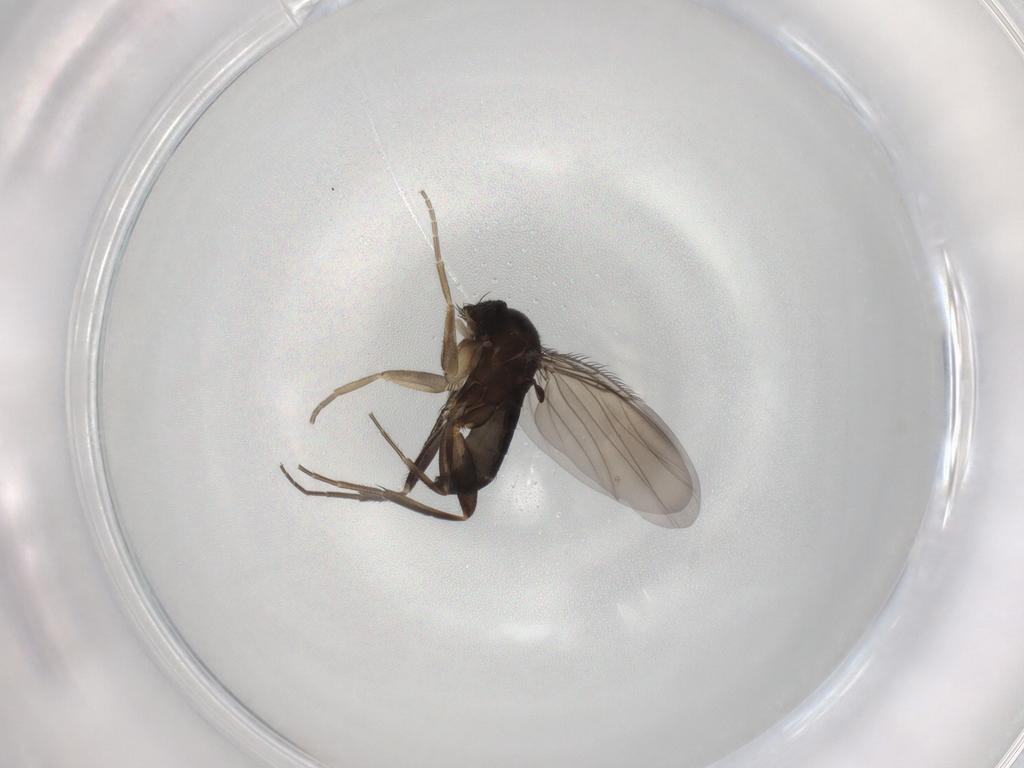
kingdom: Animalia
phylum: Arthropoda
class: Insecta
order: Diptera
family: Phoridae
